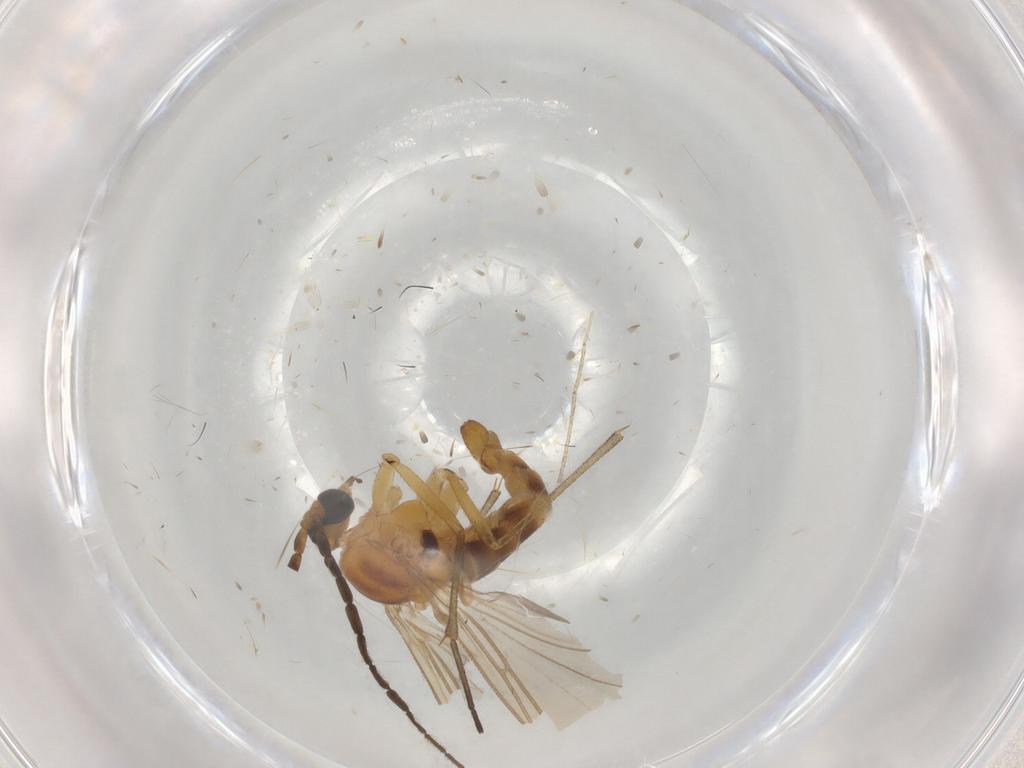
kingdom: Animalia
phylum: Arthropoda
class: Insecta
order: Diptera
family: Sciaridae
